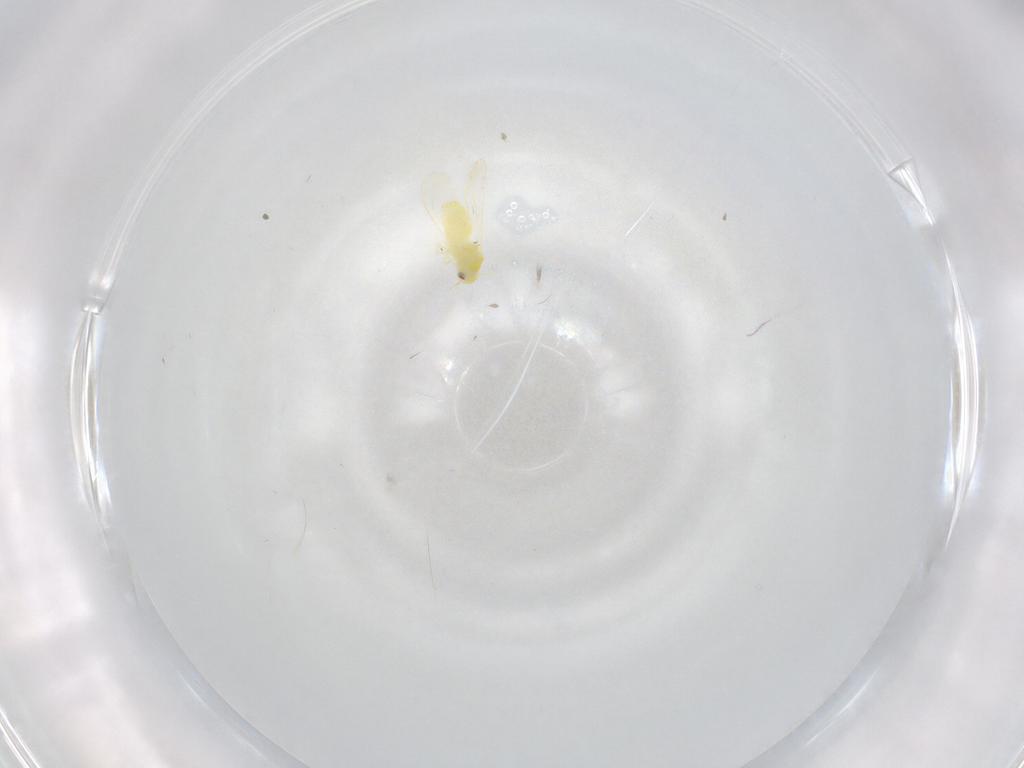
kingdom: Animalia
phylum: Arthropoda
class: Insecta
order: Hemiptera
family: Aleyrodidae
